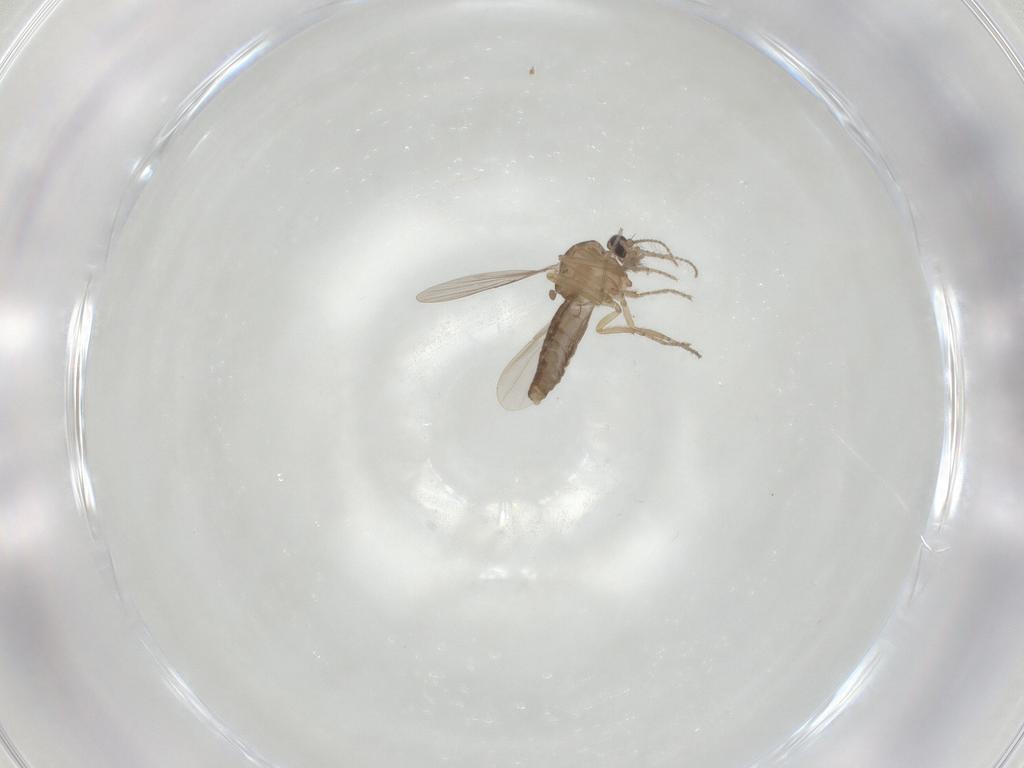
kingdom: Animalia
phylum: Arthropoda
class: Insecta
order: Diptera
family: Ceratopogonidae
